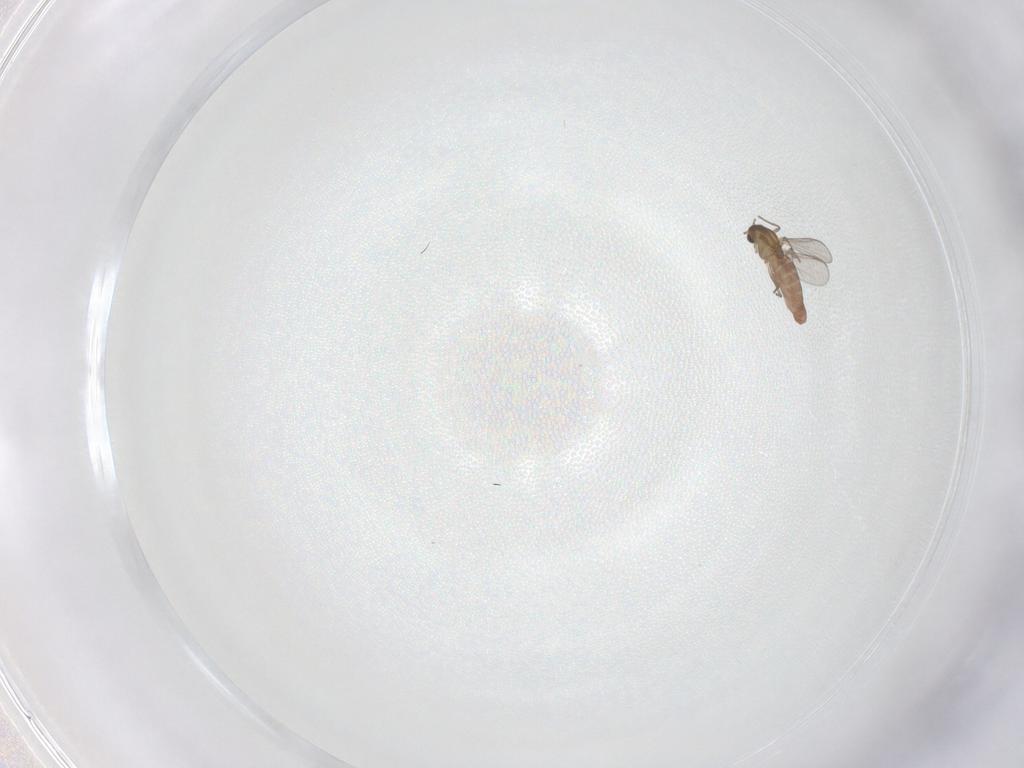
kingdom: Animalia
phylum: Arthropoda
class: Insecta
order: Diptera
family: Chironomidae
